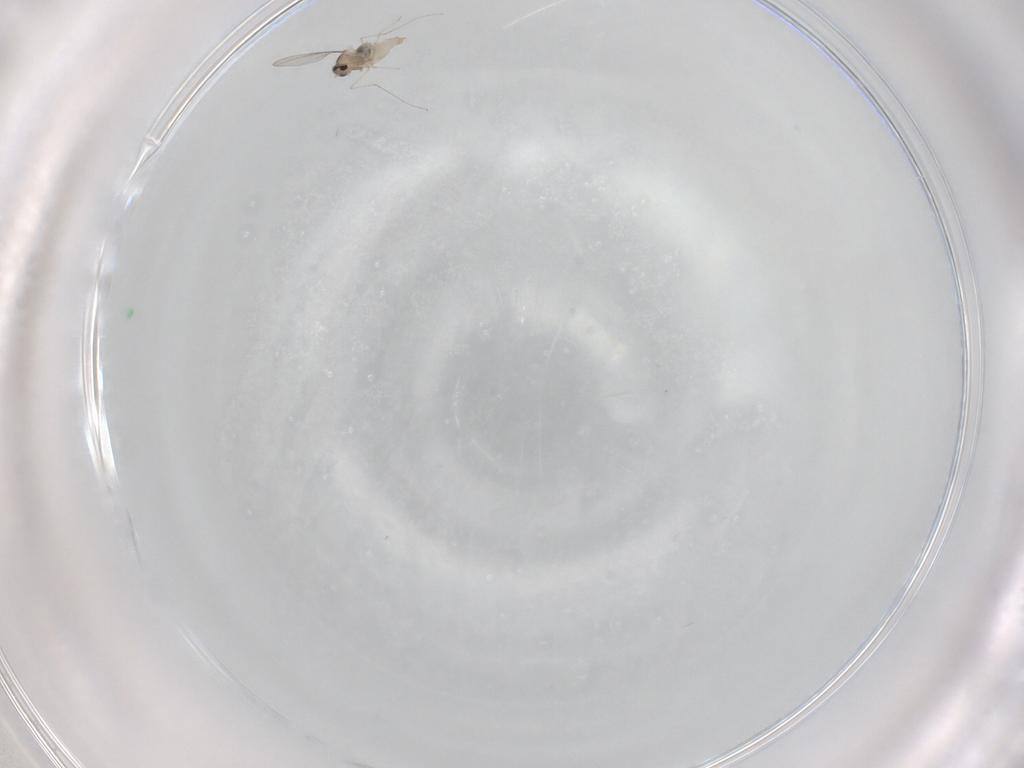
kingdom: Animalia
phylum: Arthropoda
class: Insecta
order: Diptera
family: Cecidomyiidae
